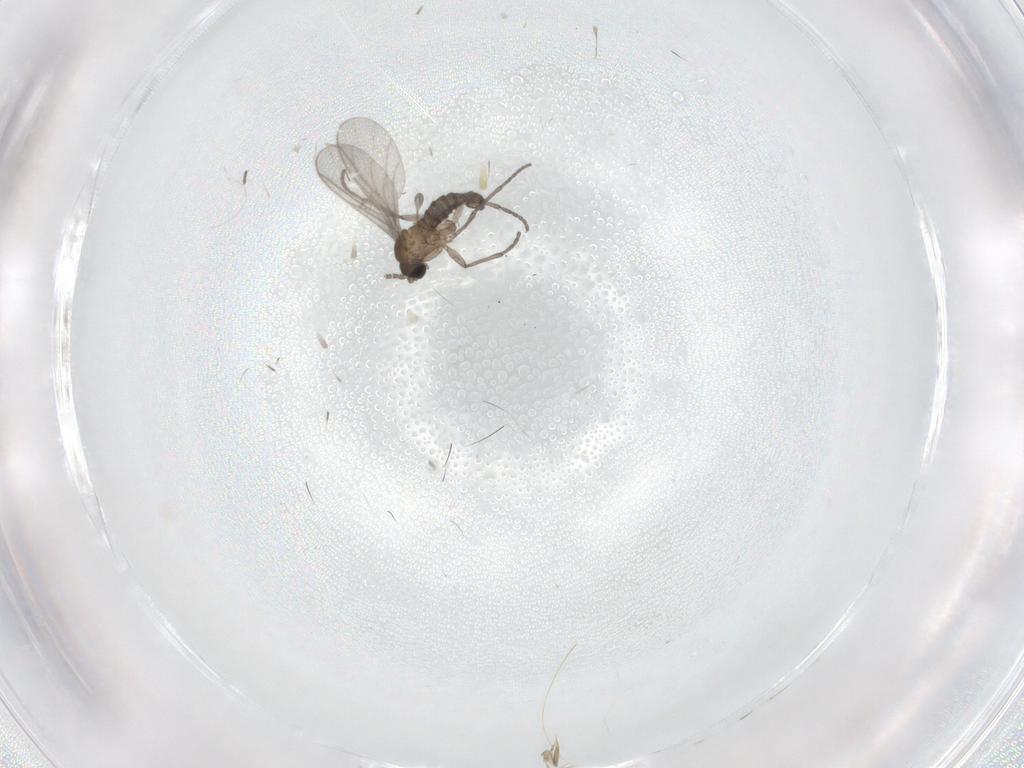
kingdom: Animalia
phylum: Arthropoda
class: Insecta
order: Diptera
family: Sciaridae
